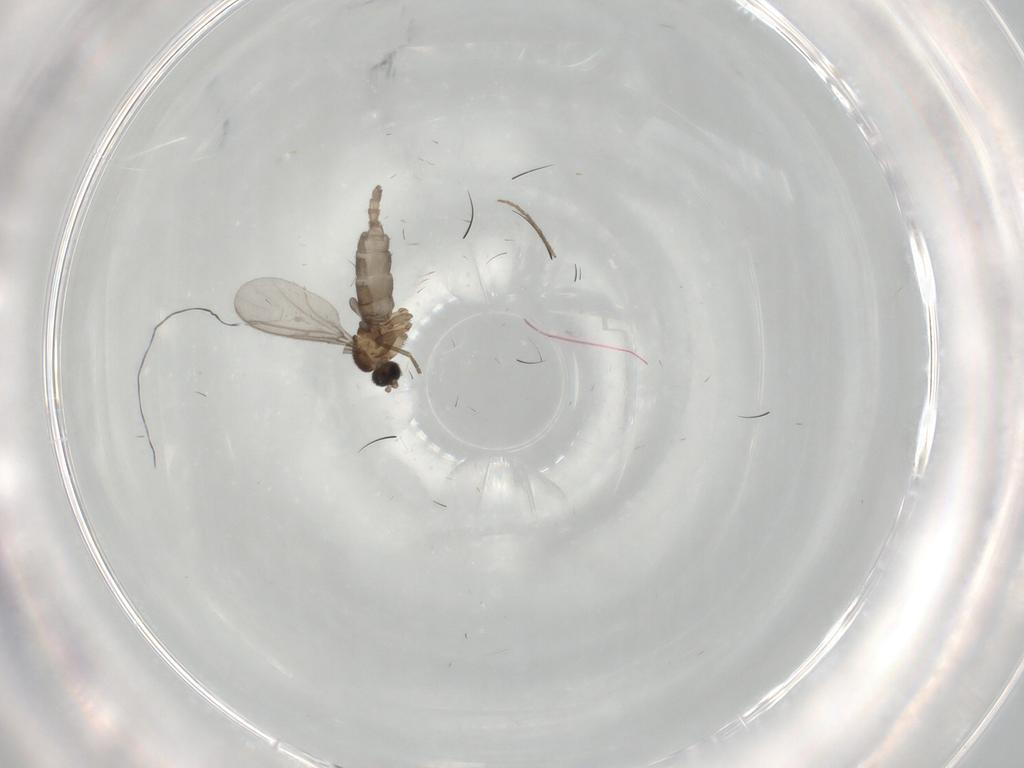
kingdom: Animalia
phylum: Arthropoda
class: Insecta
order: Diptera
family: Chironomidae
